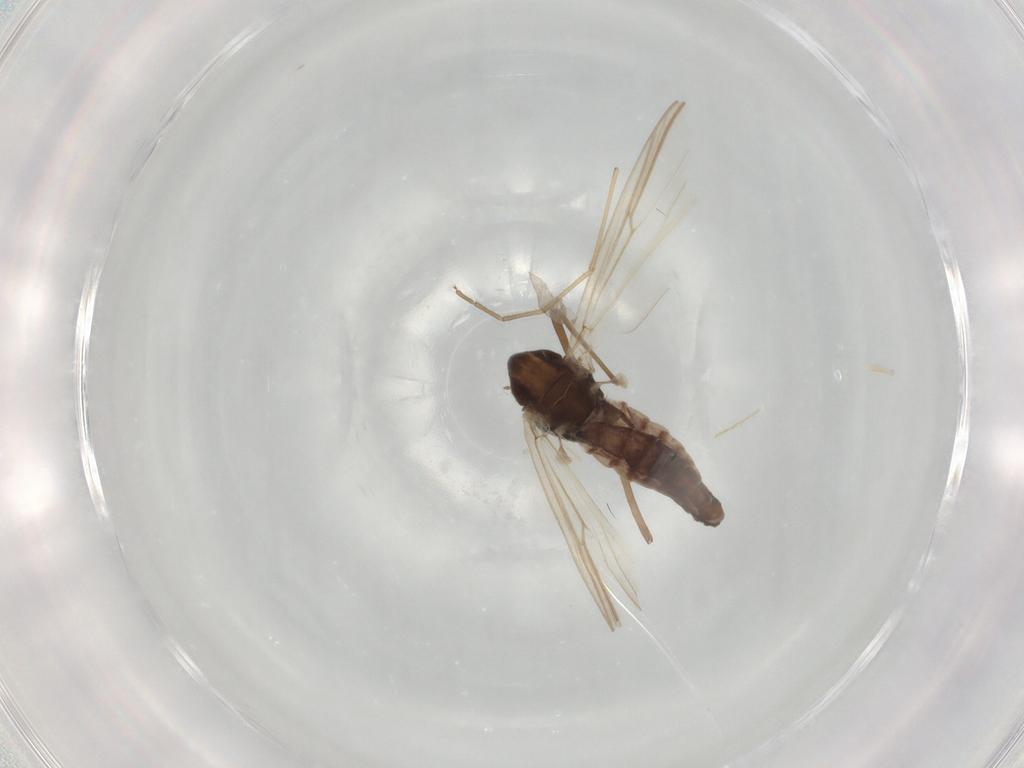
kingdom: Animalia
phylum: Arthropoda
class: Insecta
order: Diptera
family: Chironomidae
